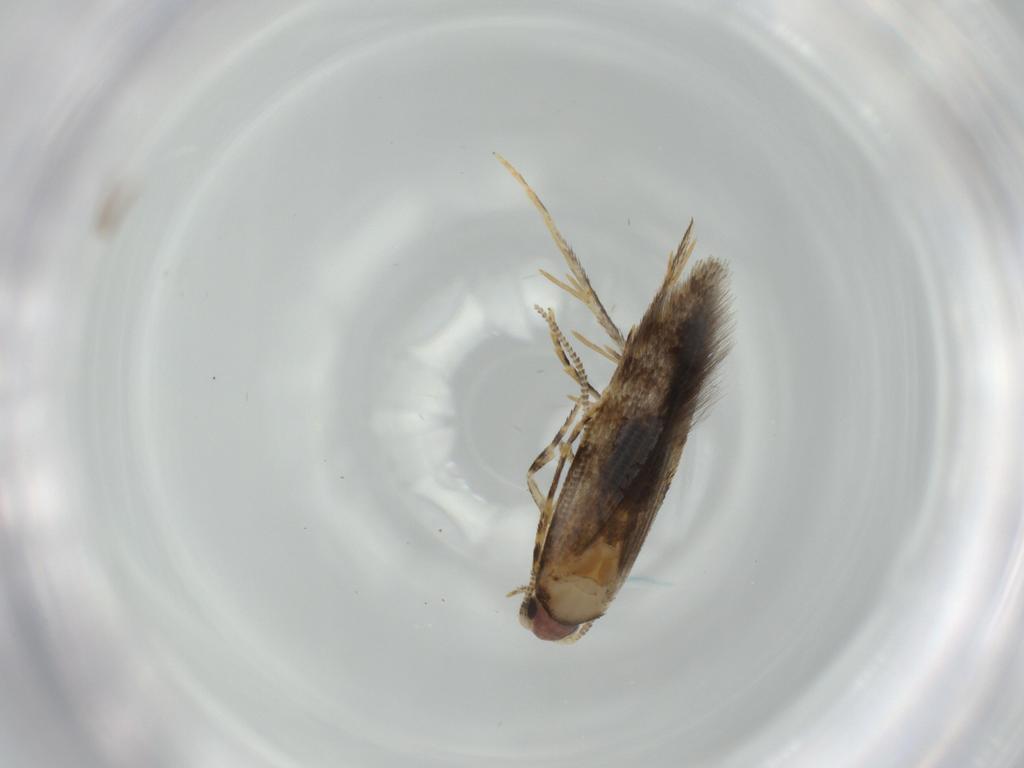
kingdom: Animalia
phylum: Arthropoda
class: Insecta
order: Lepidoptera
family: Tineidae
